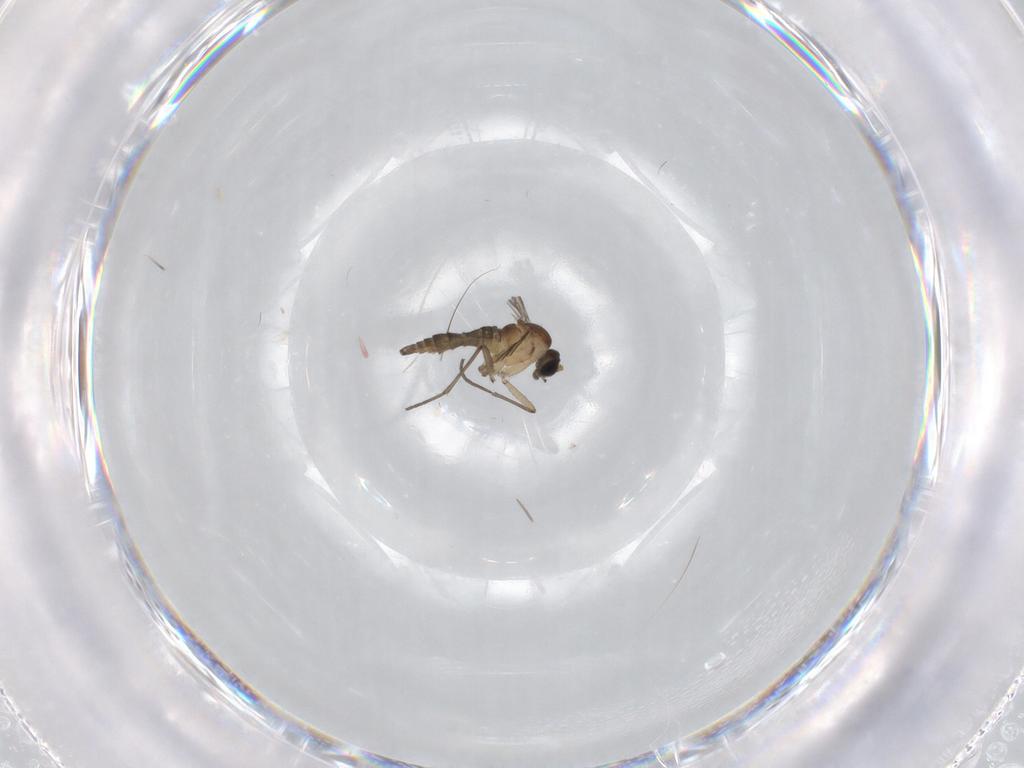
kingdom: Animalia
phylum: Arthropoda
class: Insecta
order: Diptera
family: Sciaridae
